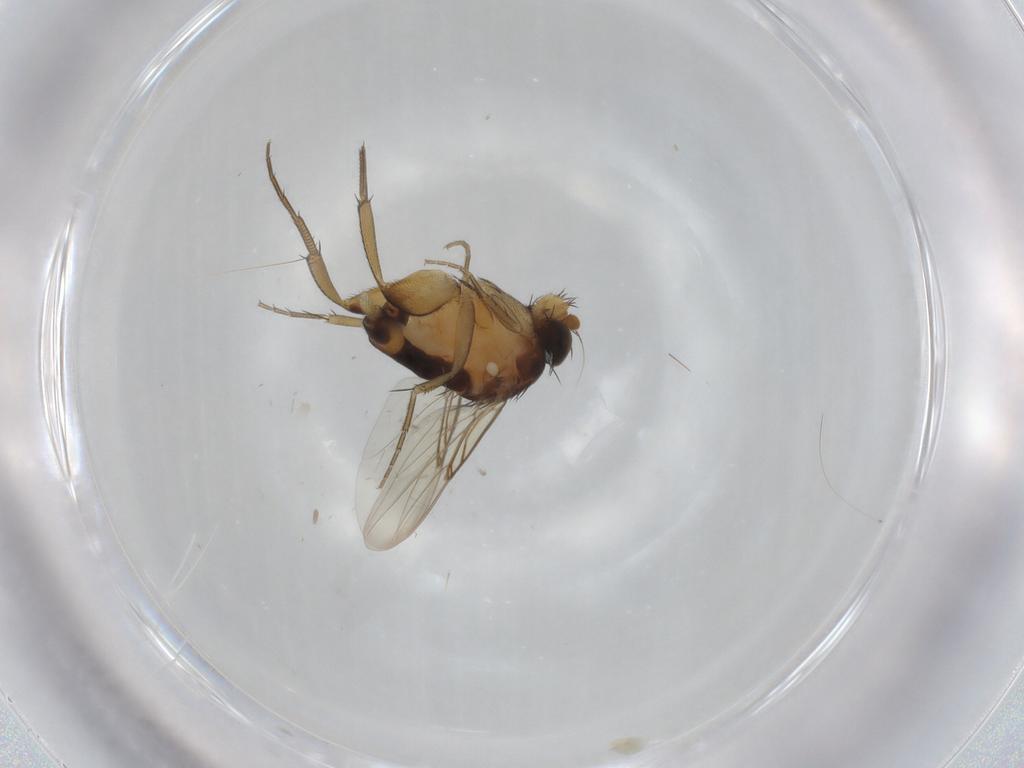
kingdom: Animalia
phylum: Arthropoda
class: Insecta
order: Diptera
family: Phoridae
